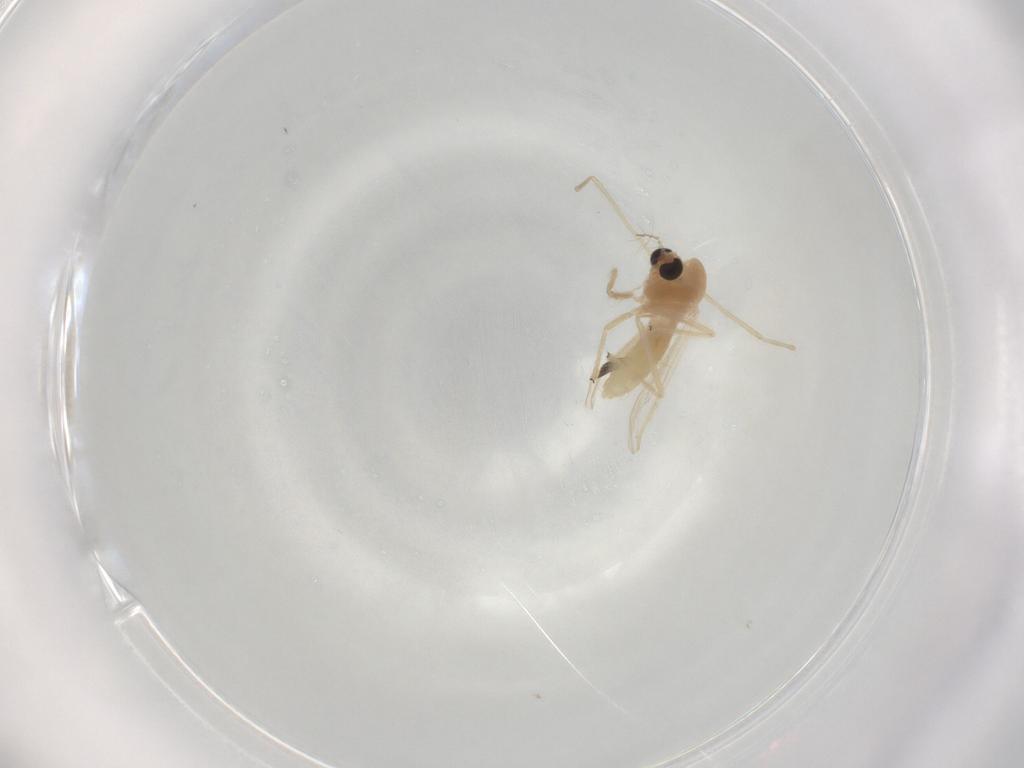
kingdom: Animalia
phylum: Arthropoda
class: Insecta
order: Diptera
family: Chironomidae
